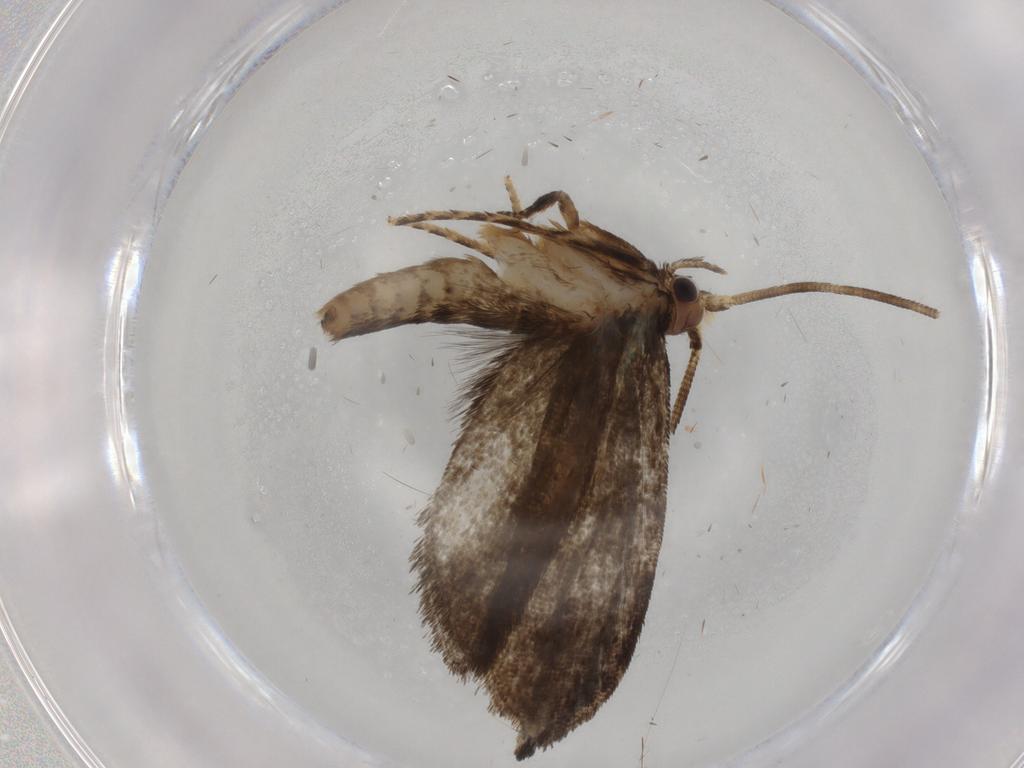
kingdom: Animalia
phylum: Arthropoda
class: Insecta
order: Lepidoptera
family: Tineidae
